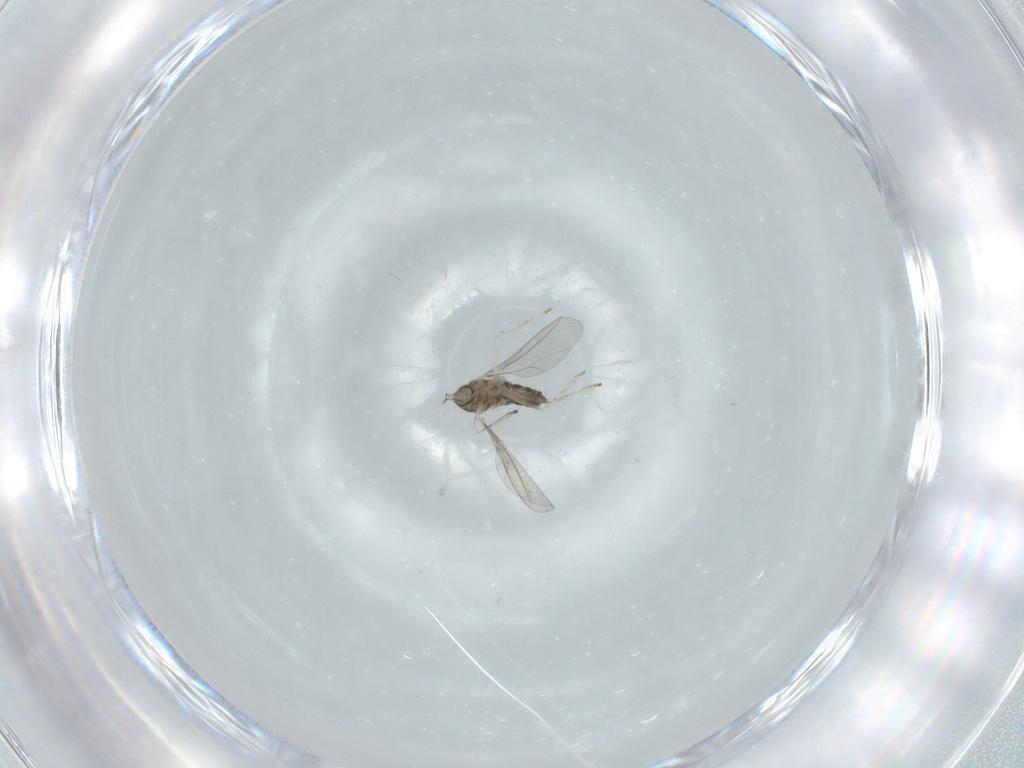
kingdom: Animalia
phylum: Arthropoda
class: Insecta
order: Diptera
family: Cecidomyiidae
